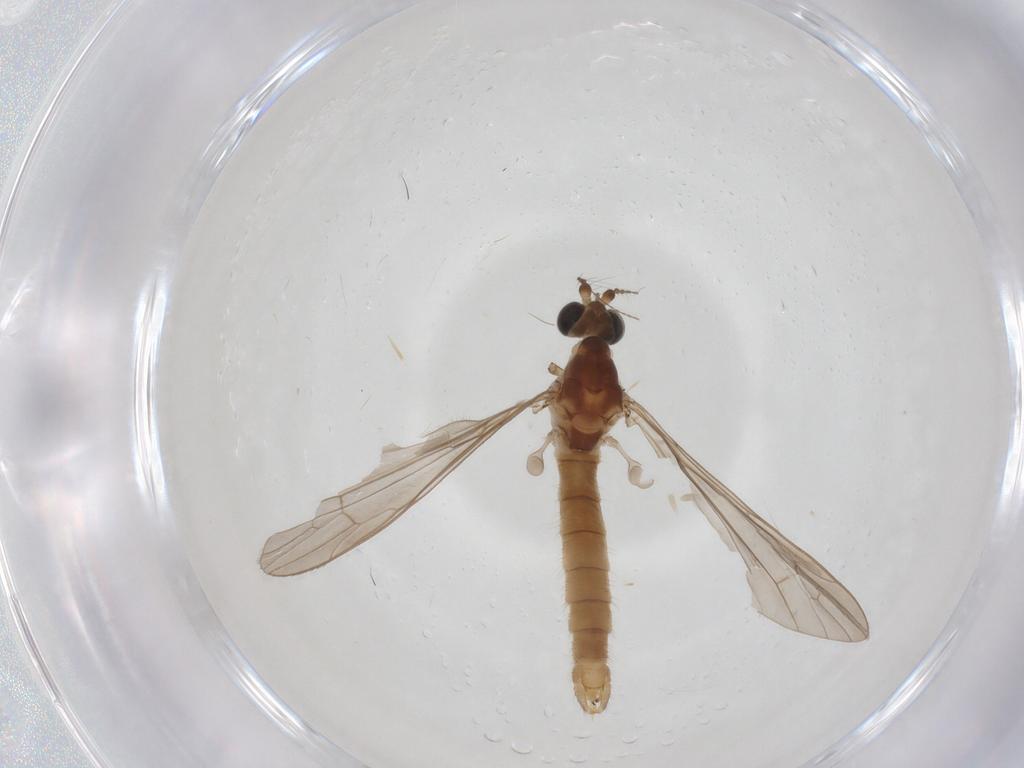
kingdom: Animalia
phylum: Arthropoda
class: Insecta
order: Diptera
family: Limoniidae
